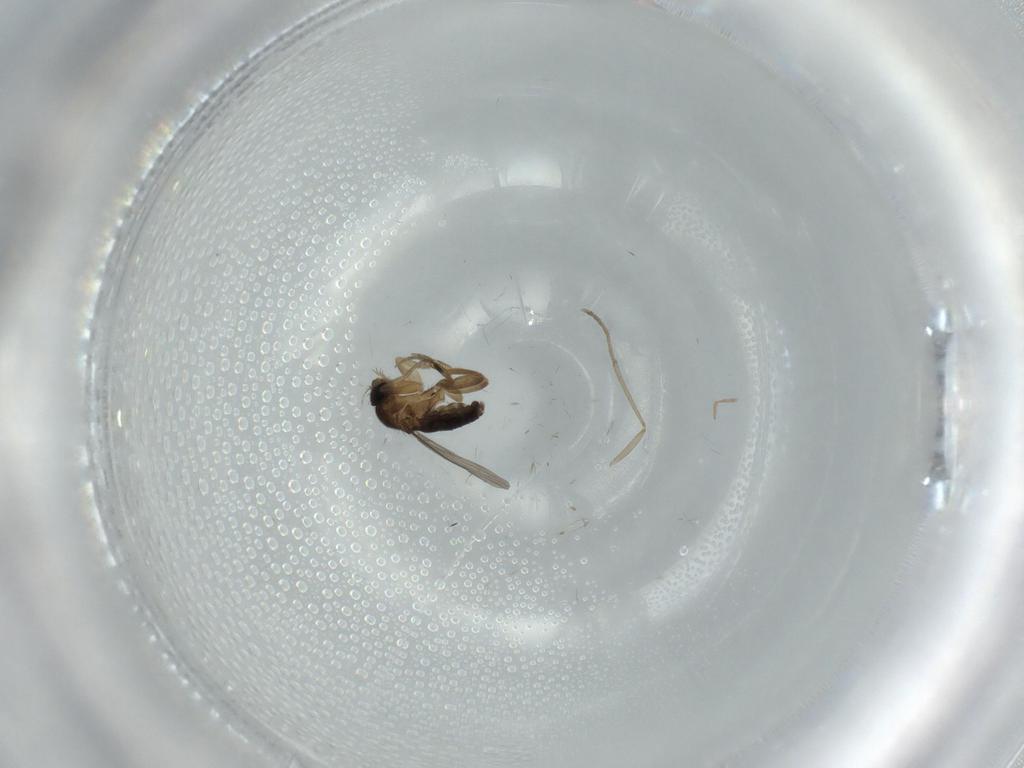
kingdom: Animalia
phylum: Arthropoda
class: Insecta
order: Diptera
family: Phoridae
